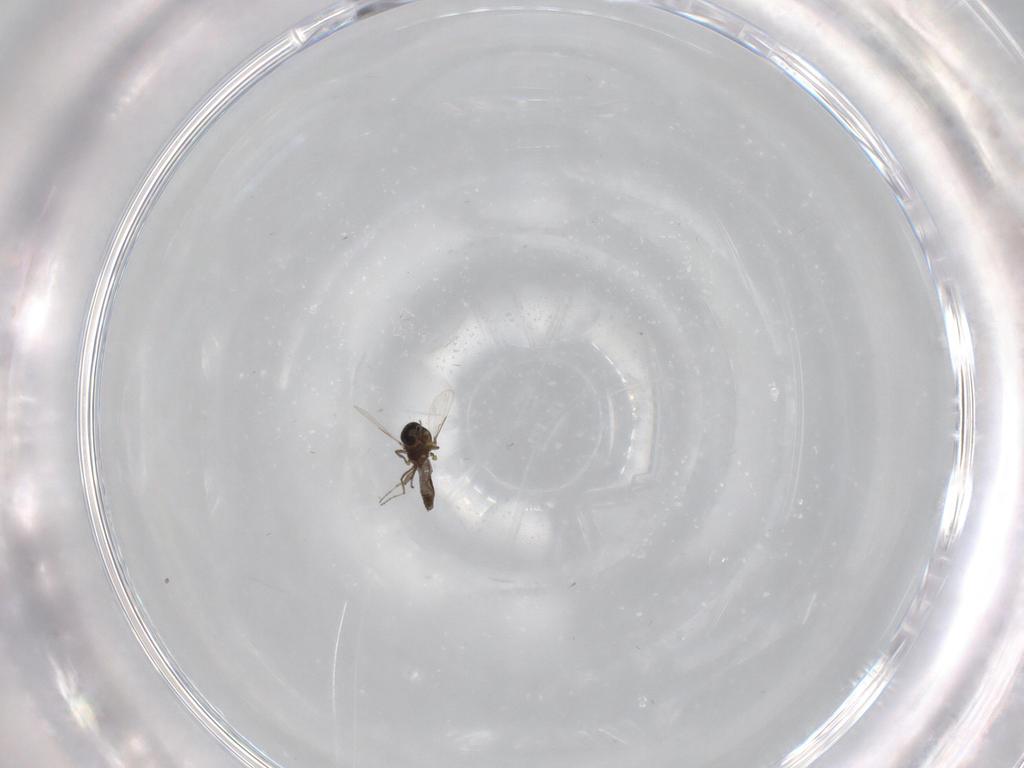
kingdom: Animalia
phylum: Arthropoda
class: Insecta
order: Diptera
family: Ceratopogonidae
